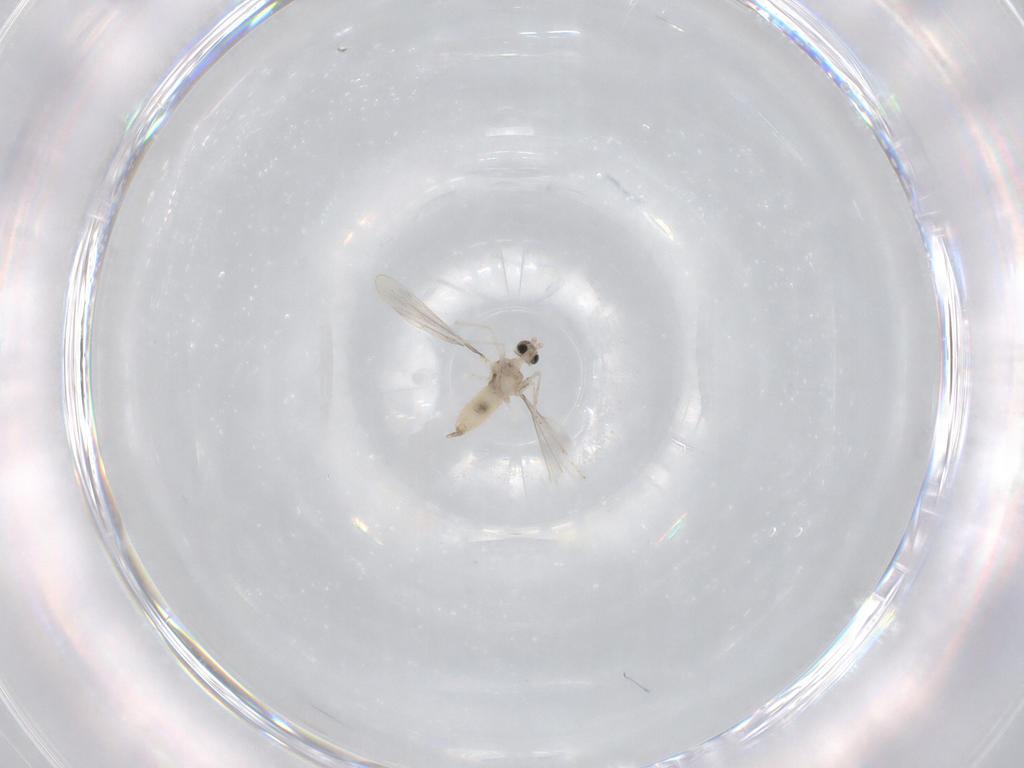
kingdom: Animalia
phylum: Arthropoda
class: Insecta
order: Diptera
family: Cecidomyiidae
